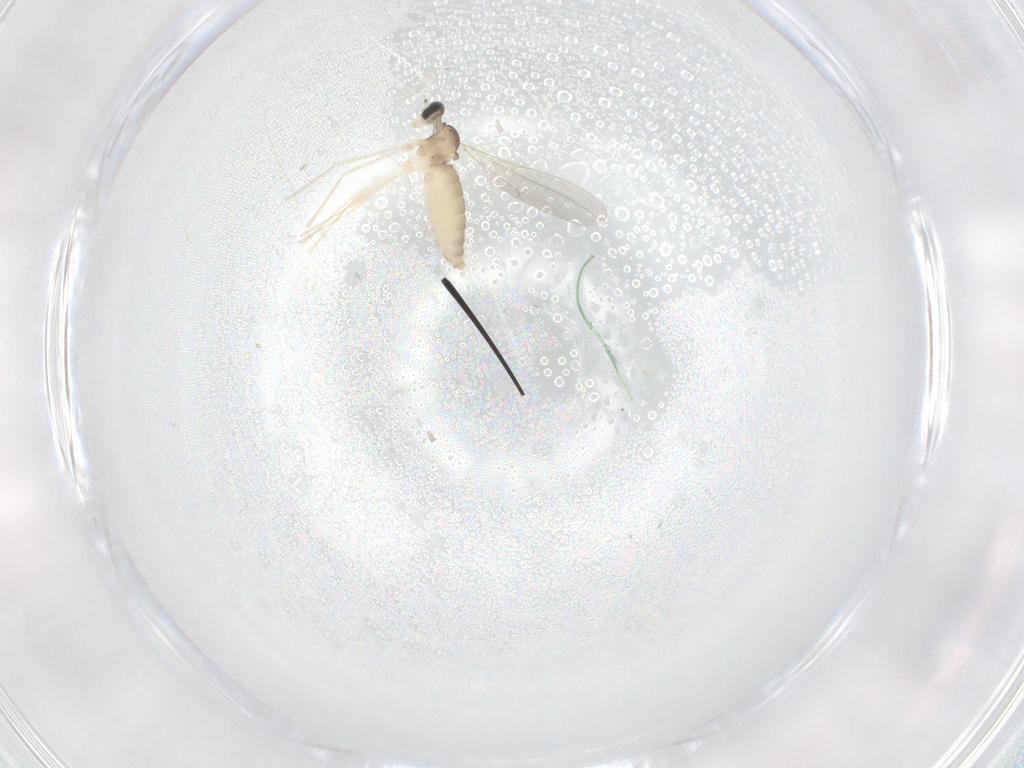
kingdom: Animalia
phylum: Arthropoda
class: Insecta
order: Diptera
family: Cecidomyiidae
